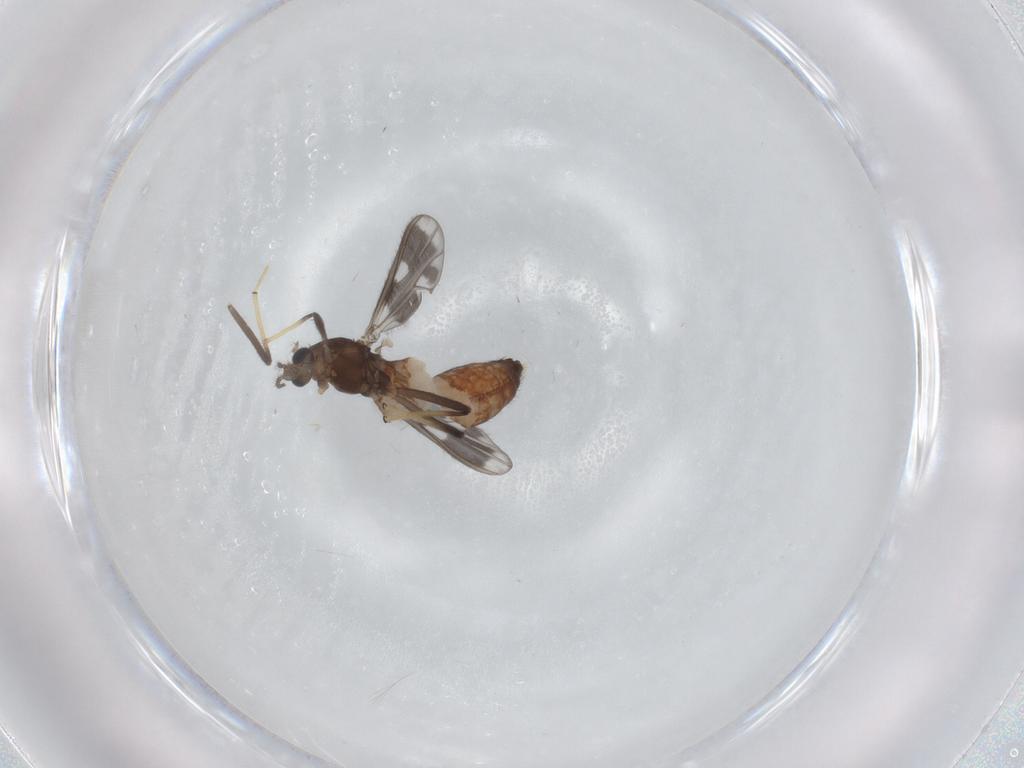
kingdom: Animalia
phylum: Arthropoda
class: Insecta
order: Diptera
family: Chironomidae
